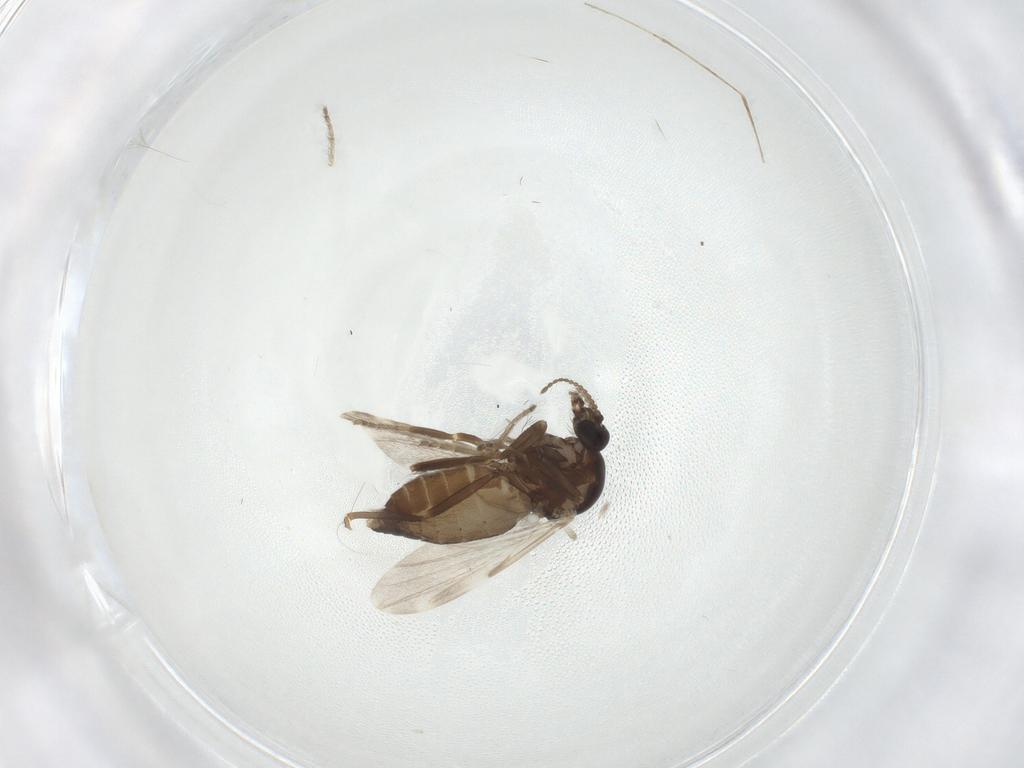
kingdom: Animalia
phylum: Arthropoda
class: Insecta
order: Diptera
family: Ceratopogonidae
